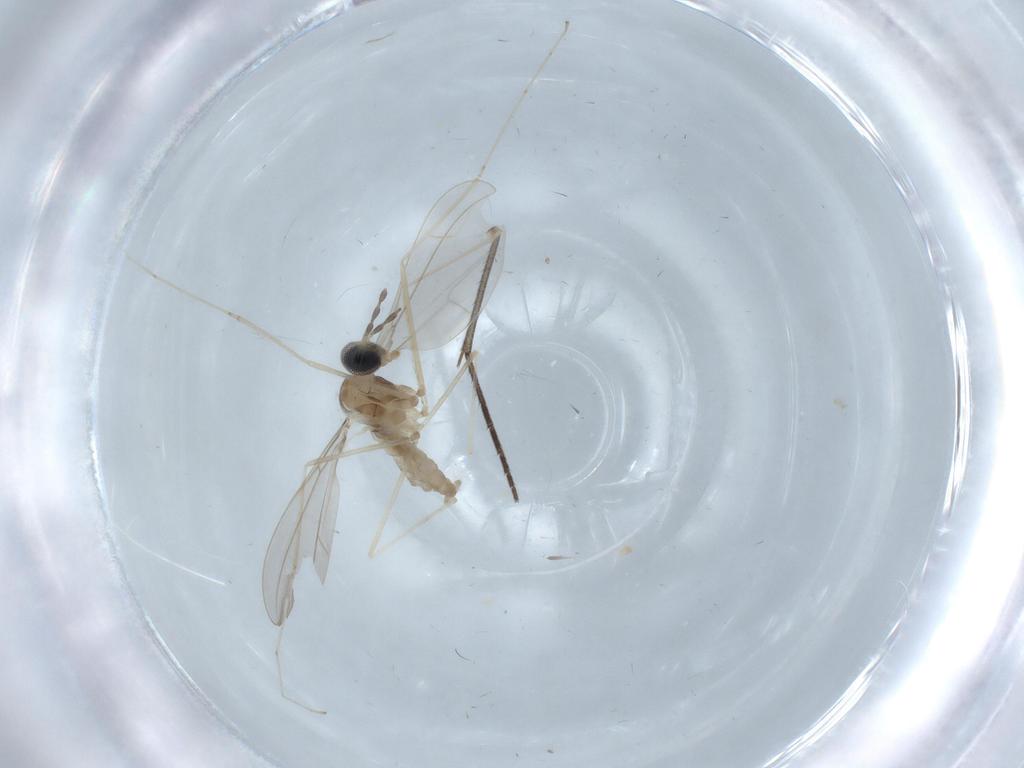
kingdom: Animalia
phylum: Arthropoda
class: Insecta
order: Diptera
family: Cecidomyiidae
